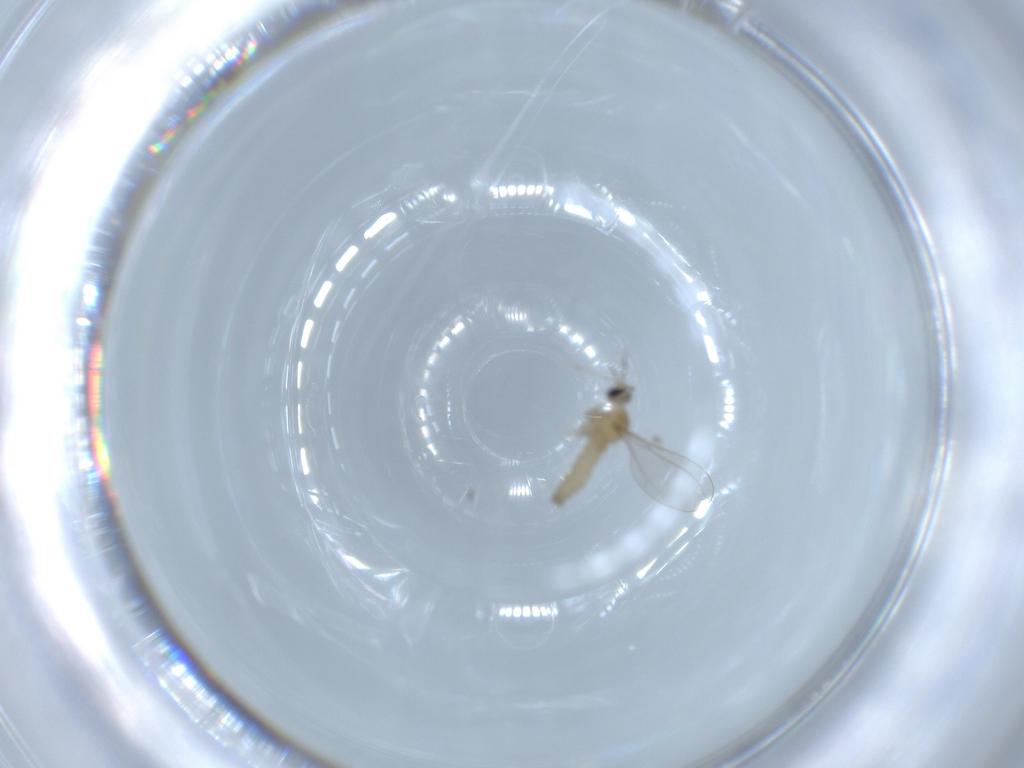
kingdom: Animalia
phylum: Arthropoda
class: Insecta
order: Diptera
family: Cecidomyiidae
